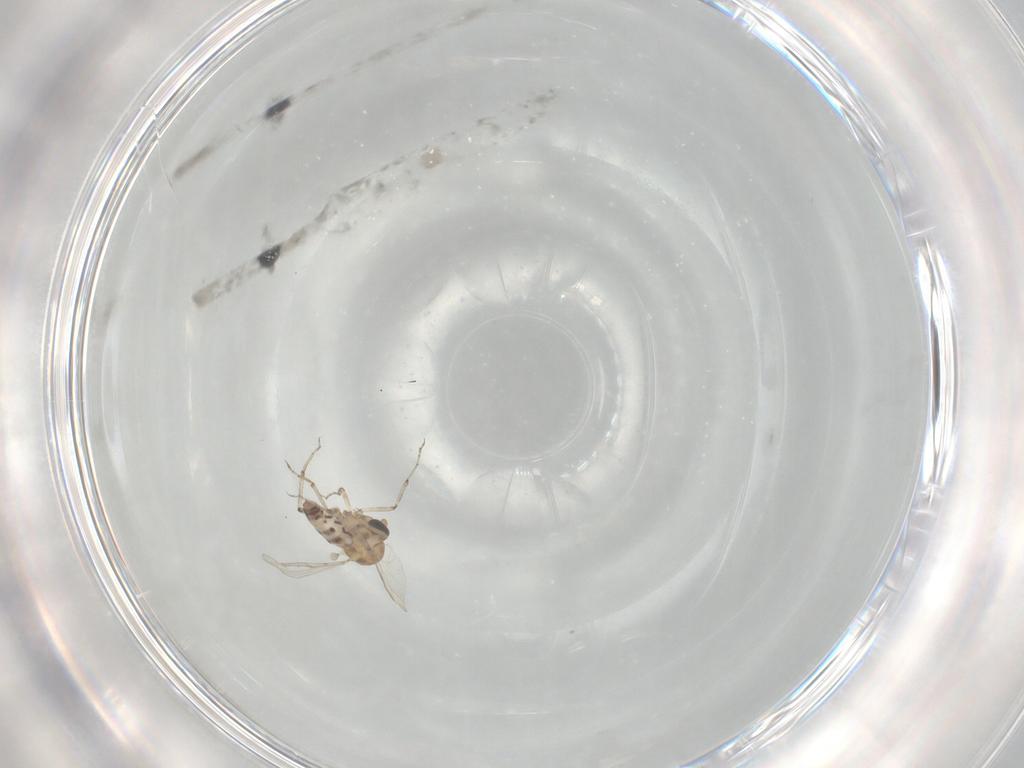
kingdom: Animalia
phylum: Arthropoda
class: Insecta
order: Diptera
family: Ceratopogonidae
